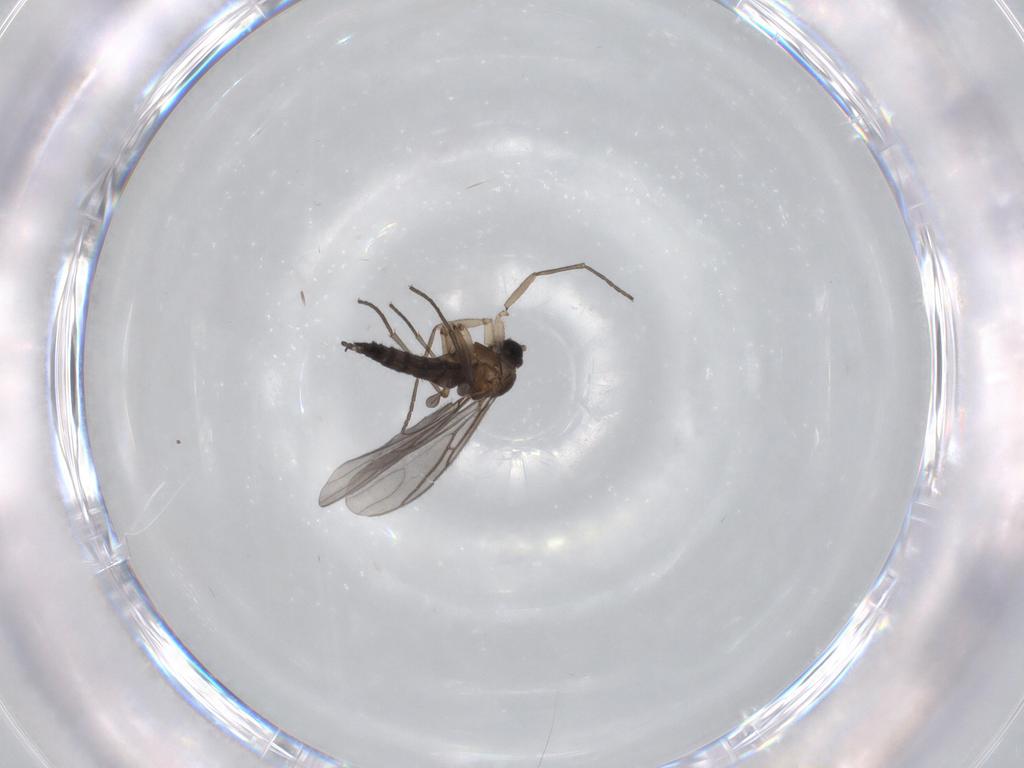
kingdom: Animalia
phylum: Arthropoda
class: Insecta
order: Diptera
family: Sciaridae
